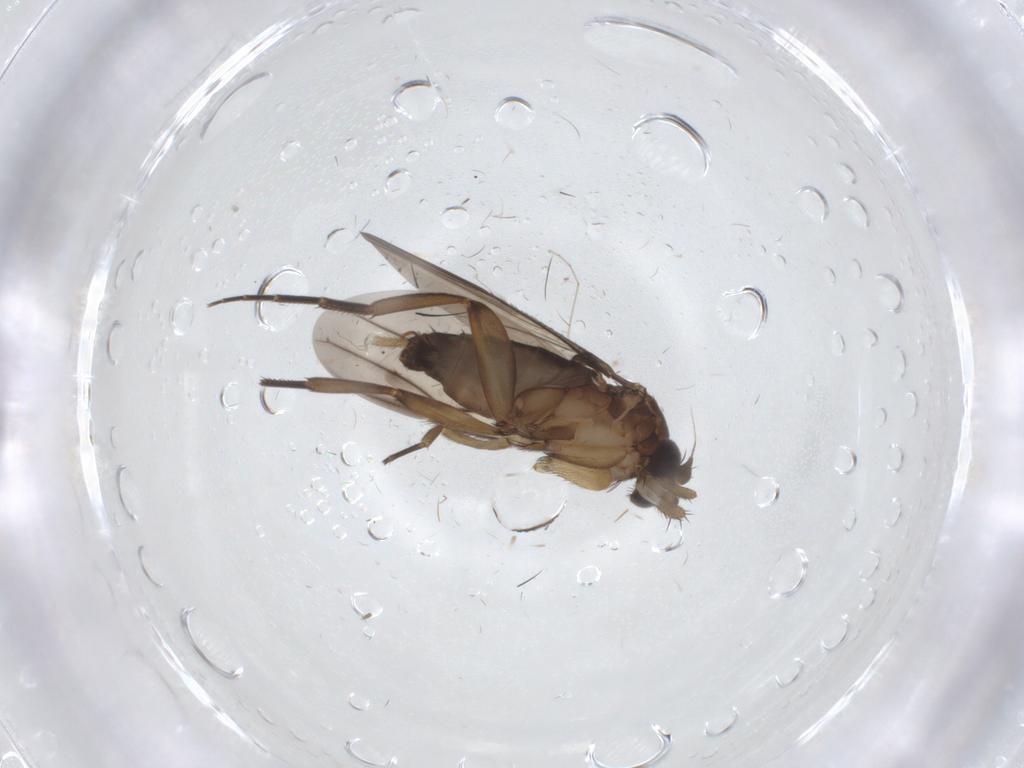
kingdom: Animalia
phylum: Arthropoda
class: Insecta
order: Diptera
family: Phoridae
